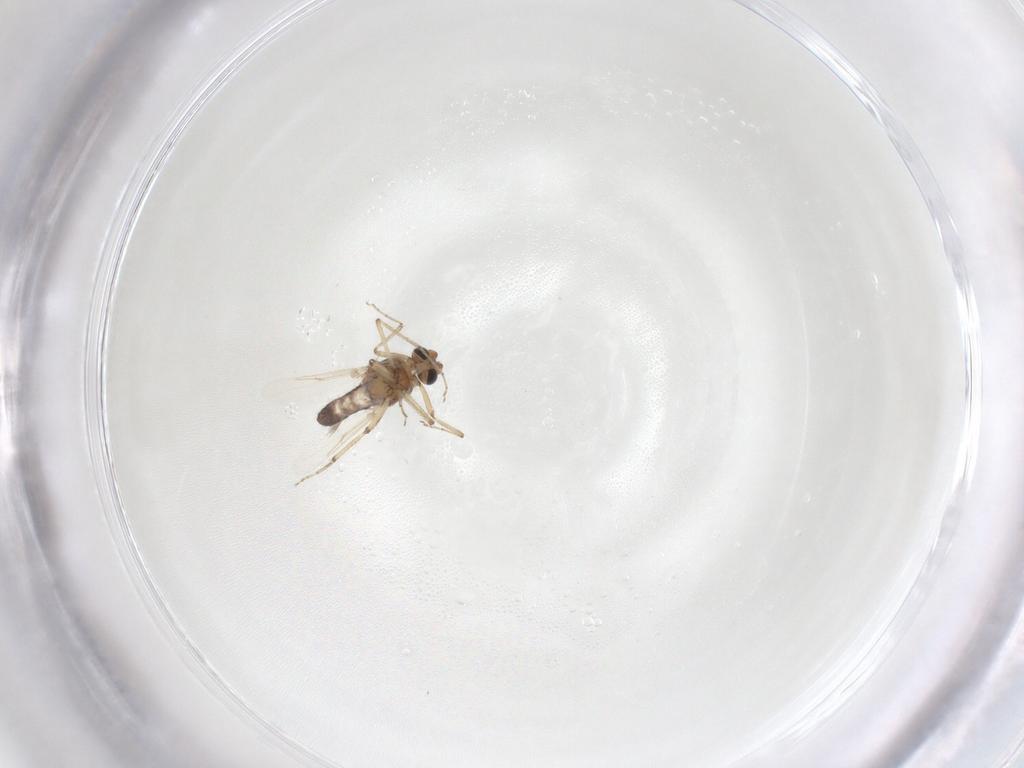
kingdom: Animalia
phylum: Arthropoda
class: Insecta
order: Diptera
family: Ceratopogonidae
